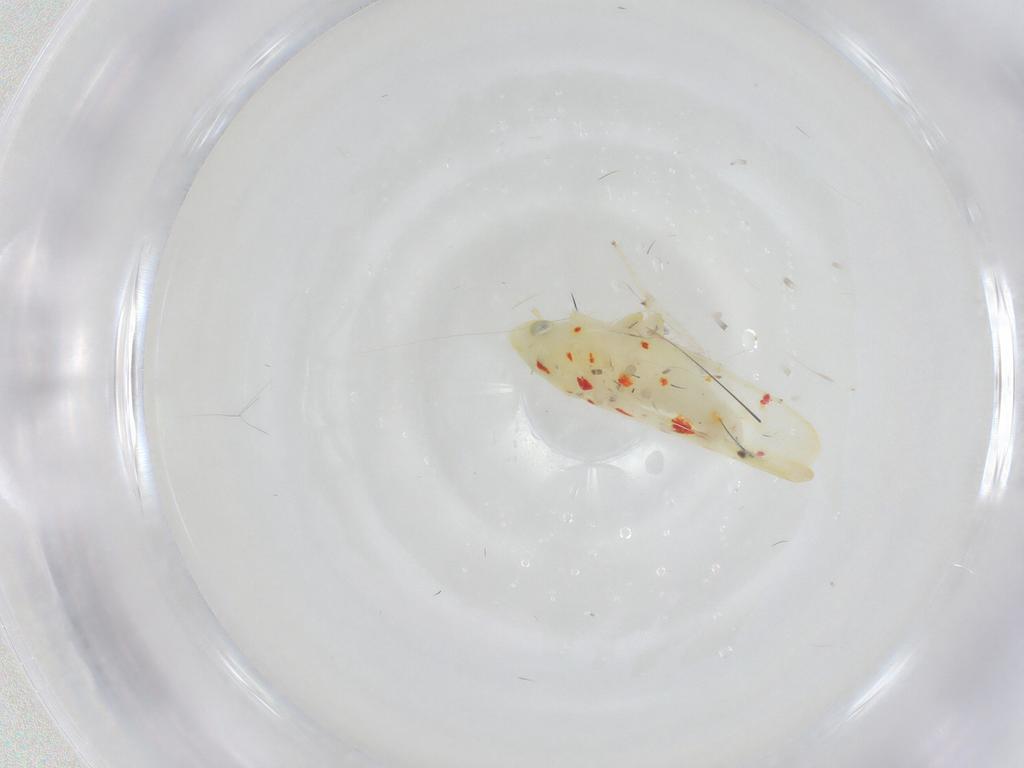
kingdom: Animalia
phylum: Arthropoda
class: Insecta
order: Hemiptera
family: Cicadellidae
